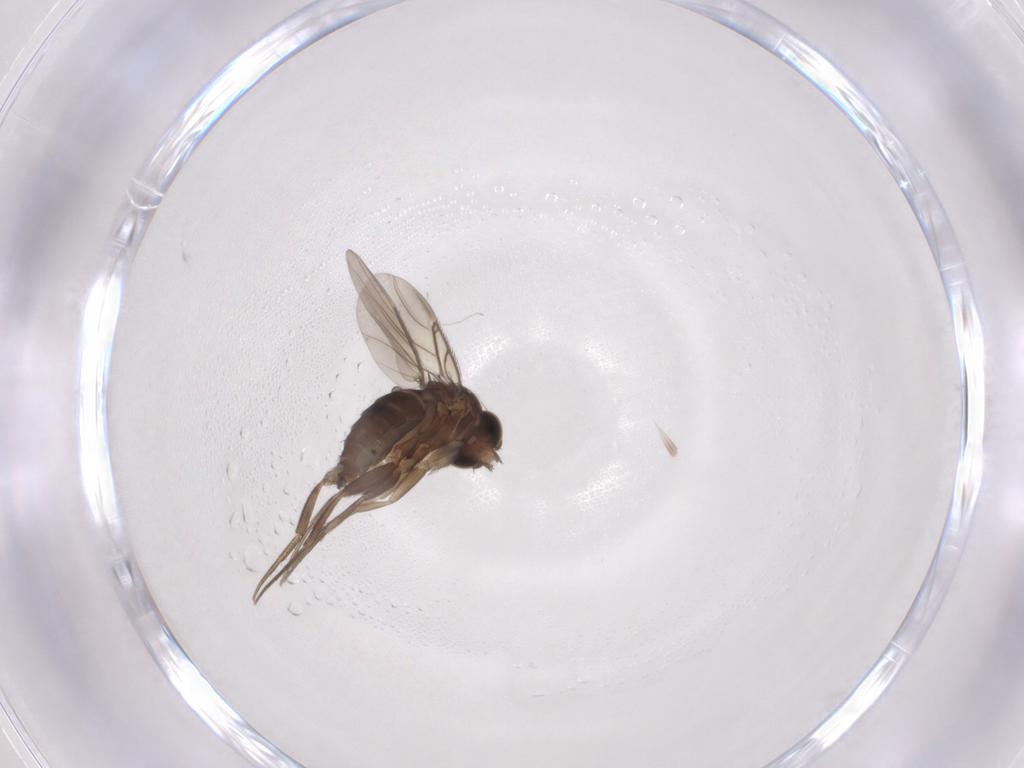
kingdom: Animalia
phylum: Arthropoda
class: Insecta
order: Diptera
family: Phoridae
